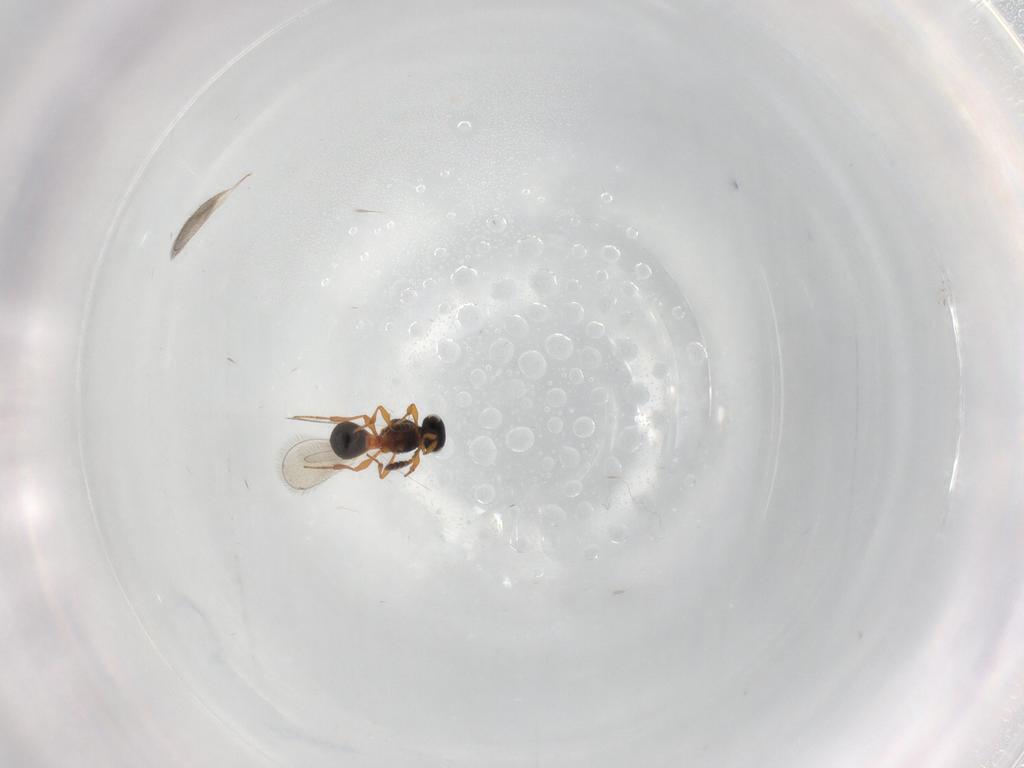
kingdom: Animalia
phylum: Arthropoda
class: Insecta
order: Hymenoptera
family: Platygastridae
